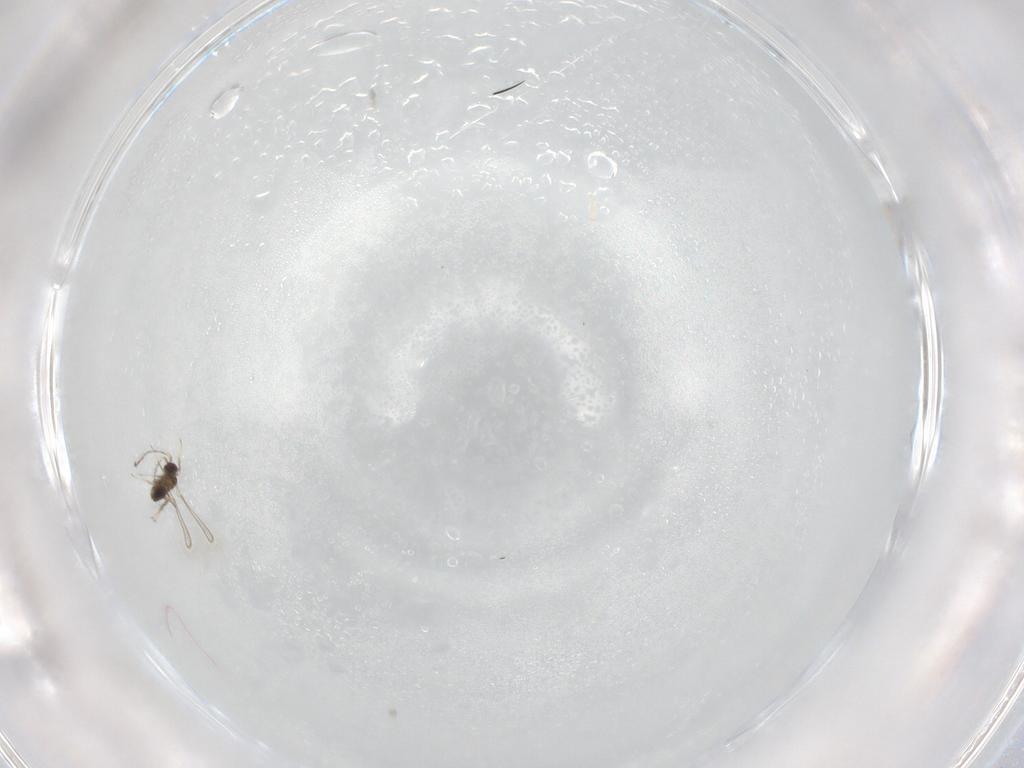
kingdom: Animalia
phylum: Arthropoda
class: Insecta
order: Hymenoptera
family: Mymaridae
